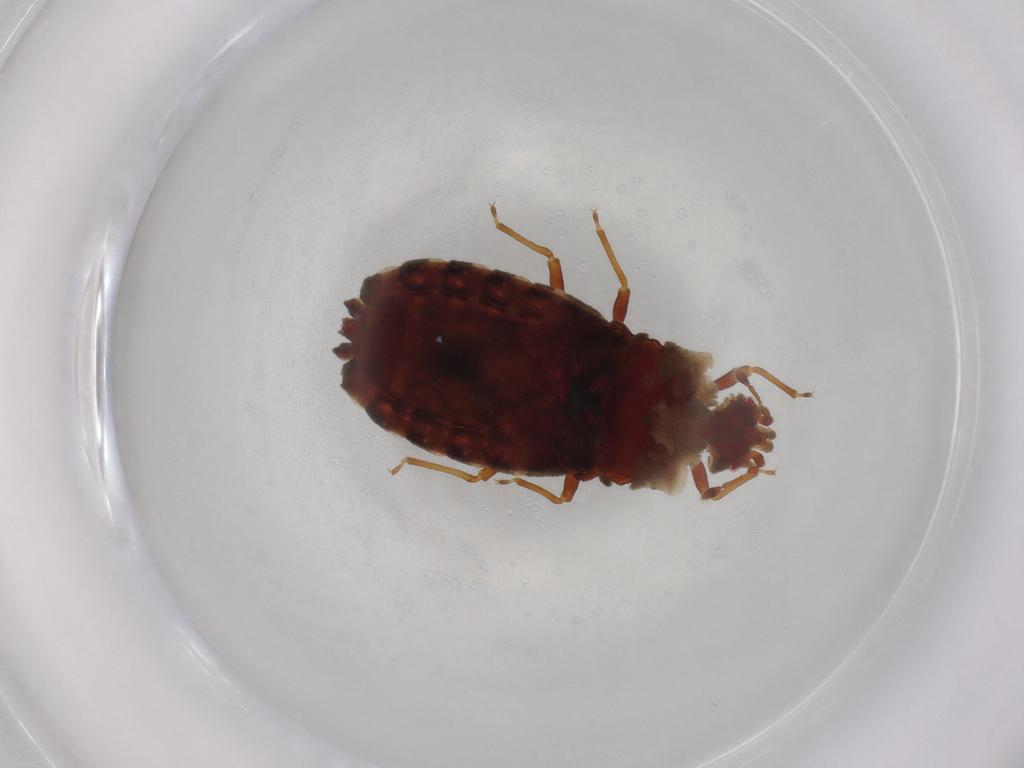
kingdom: Animalia
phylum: Arthropoda
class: Insecta
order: Hemiptera
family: Aradidae
